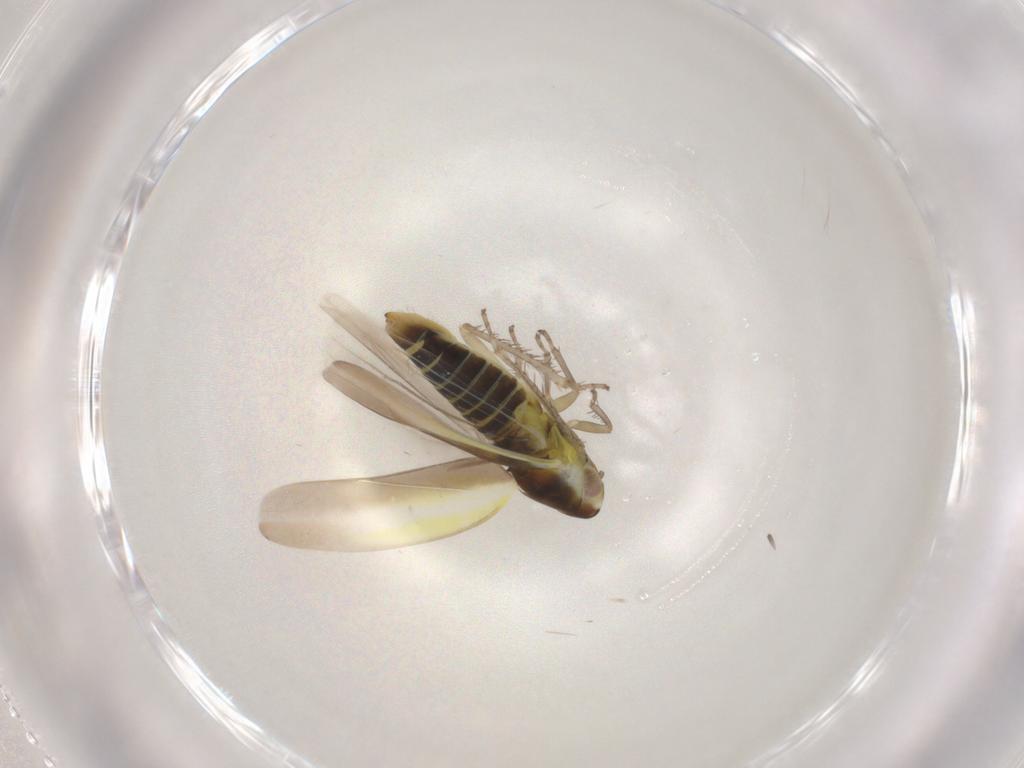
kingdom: Animalia
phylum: Arthropoda
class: Insecta
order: Hemiptera
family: Cicadellidae
